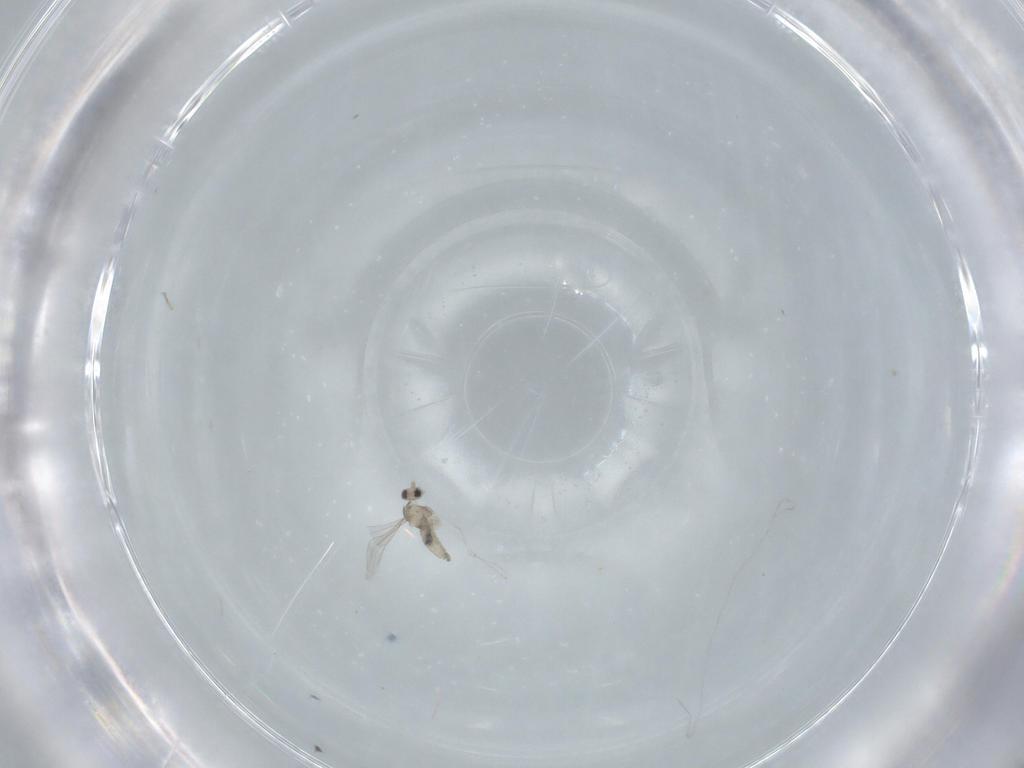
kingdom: Animalia
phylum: Arthropoda
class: Insecta
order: Diptera
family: Cecidomyiidae
